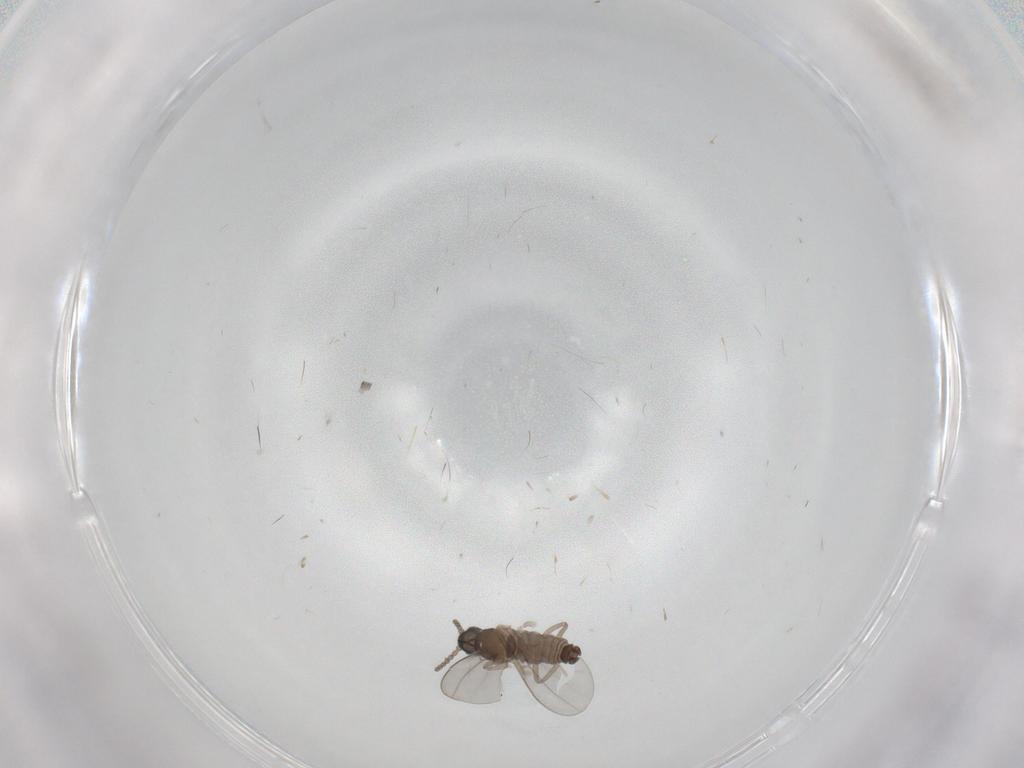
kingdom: Animalia
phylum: Arthropoda
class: Insecta
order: Diptera
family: Cecidomyiidae
